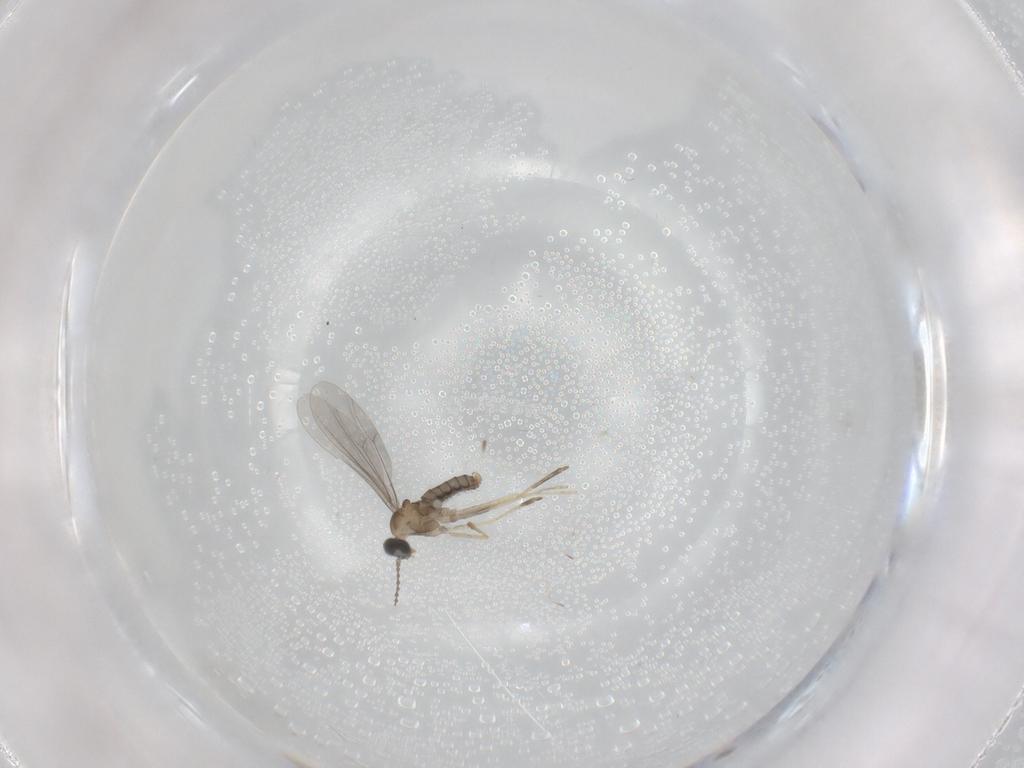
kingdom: Animalia
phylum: Arthropoda
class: Insecta
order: Diptera
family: Cecidomyiidae
